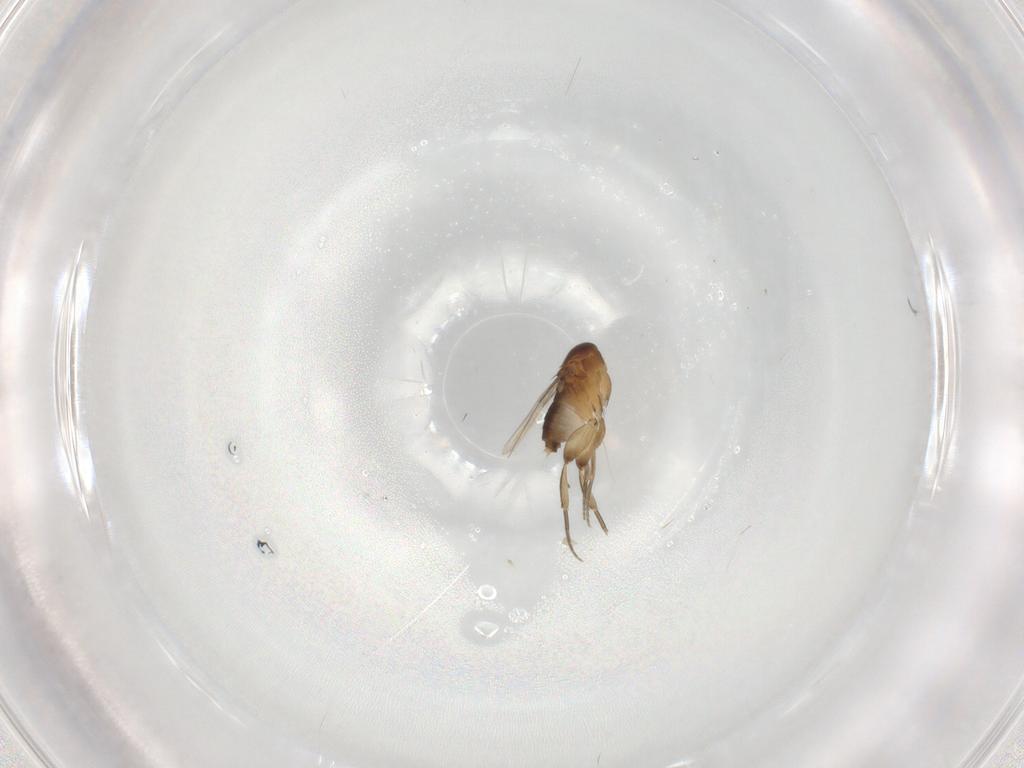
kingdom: Animalia
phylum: Arthropoda
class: Insecta
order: Diptera
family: Phoridae
